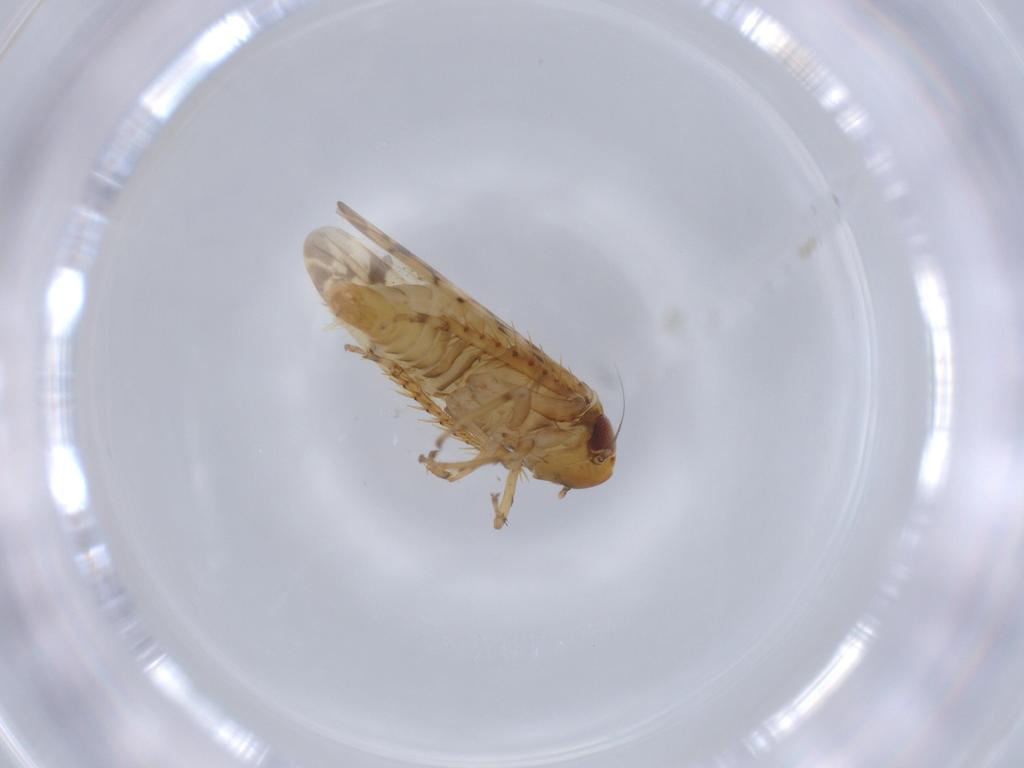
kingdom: Animalia
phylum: Arthropoda
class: Insecta
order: Hemiptera
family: Cicadellidae
